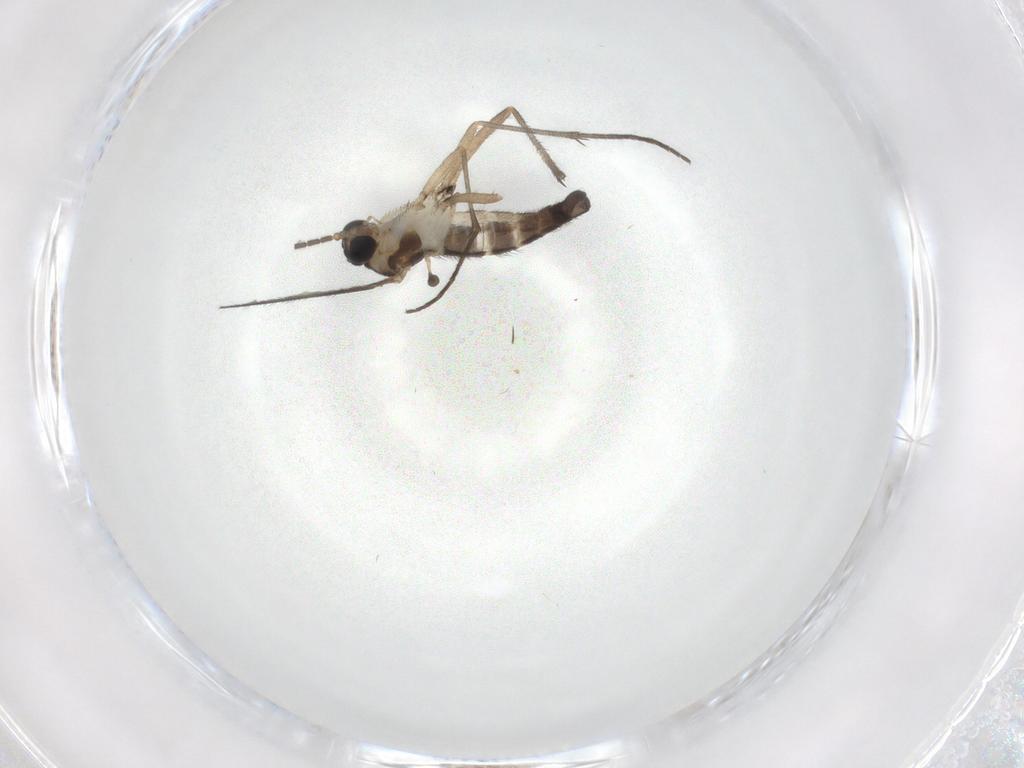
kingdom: Animalia
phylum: Arthropoda
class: Insecta
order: Diptera
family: Sciaridae
